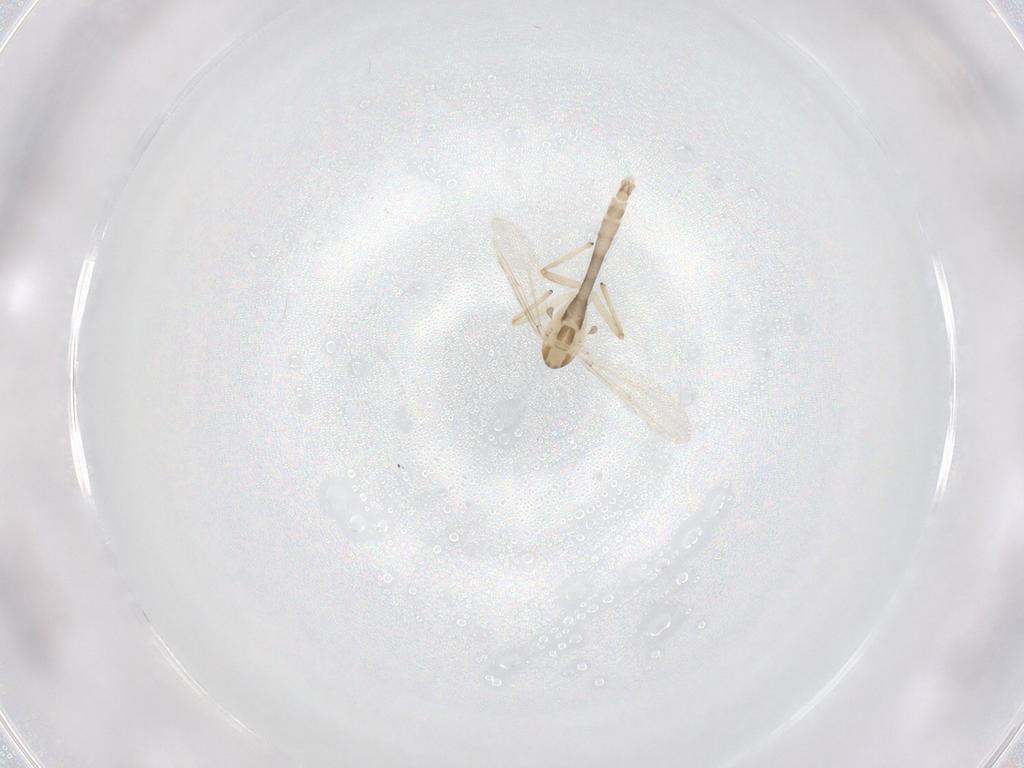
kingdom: Animalia
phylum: Arthropoda
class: Insecta
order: Diptera
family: Chironomidae
